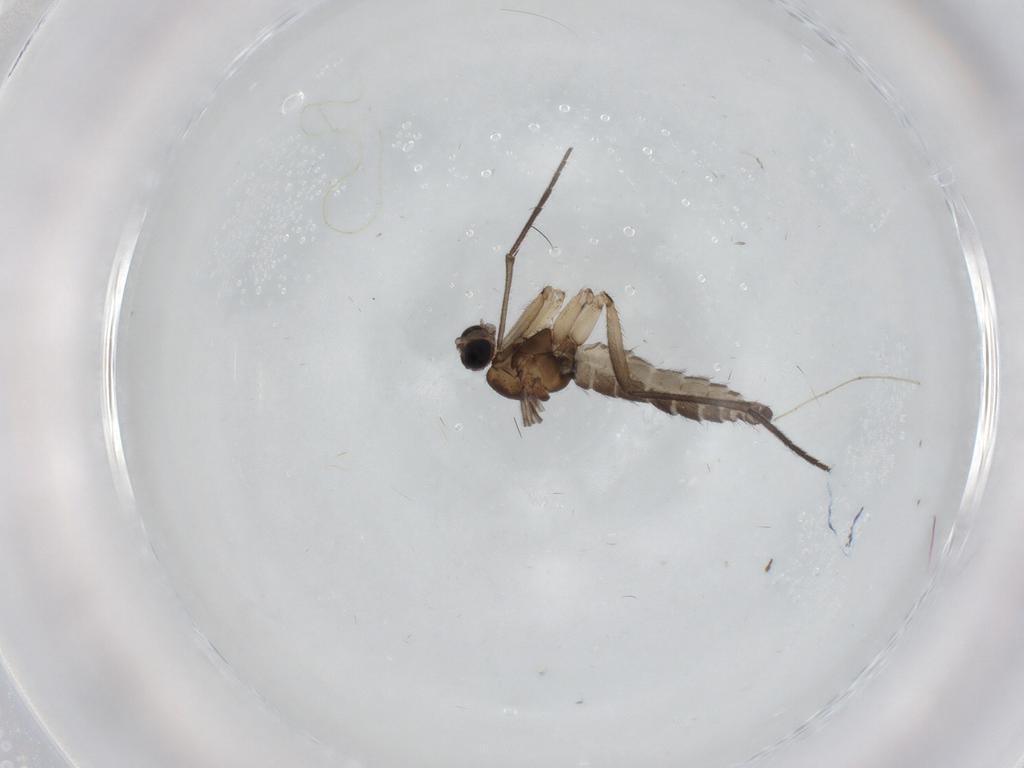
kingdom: Animalia
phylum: Arthropoda
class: Insecta
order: Diptera
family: Sciaridae
